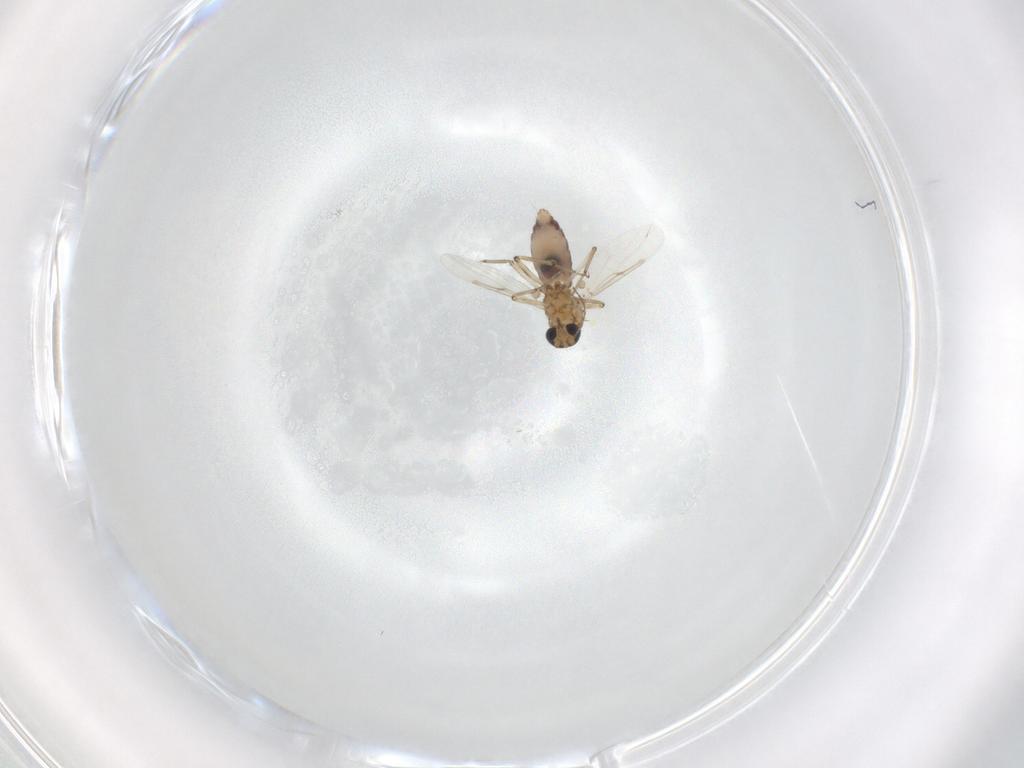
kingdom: Animalia
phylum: Arthropoda
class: Insecta
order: Diptera
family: Ceratopogonidae
